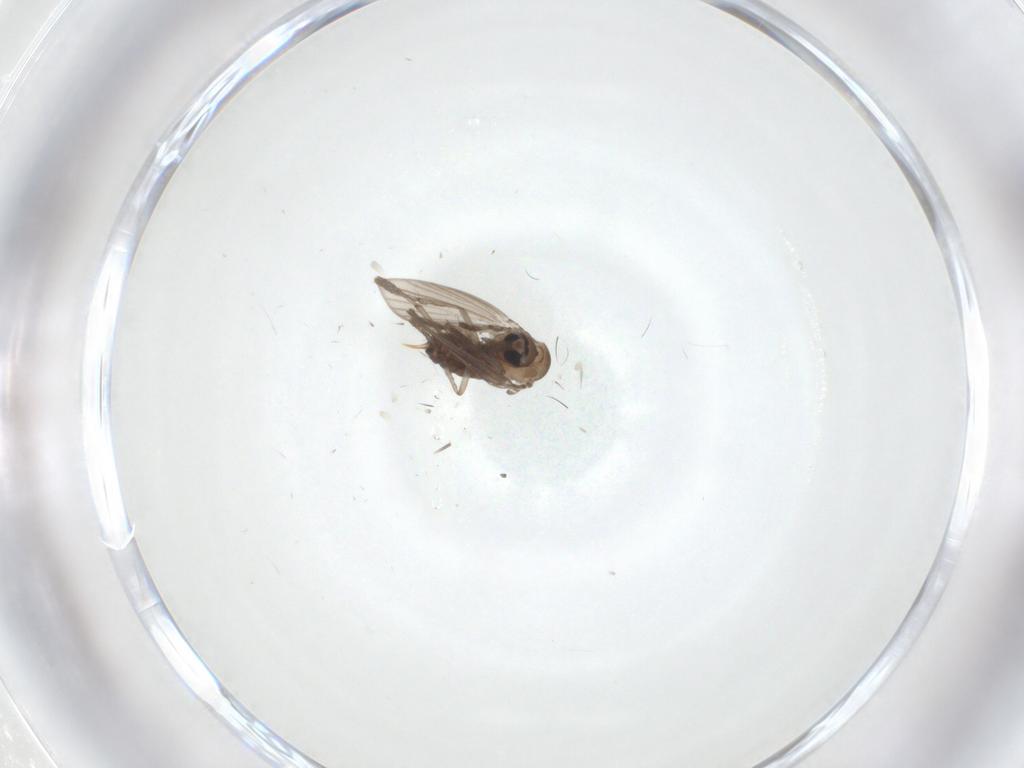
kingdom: Animalia
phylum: Arthropoda
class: Insecta
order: Diptera
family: Psychodidae
